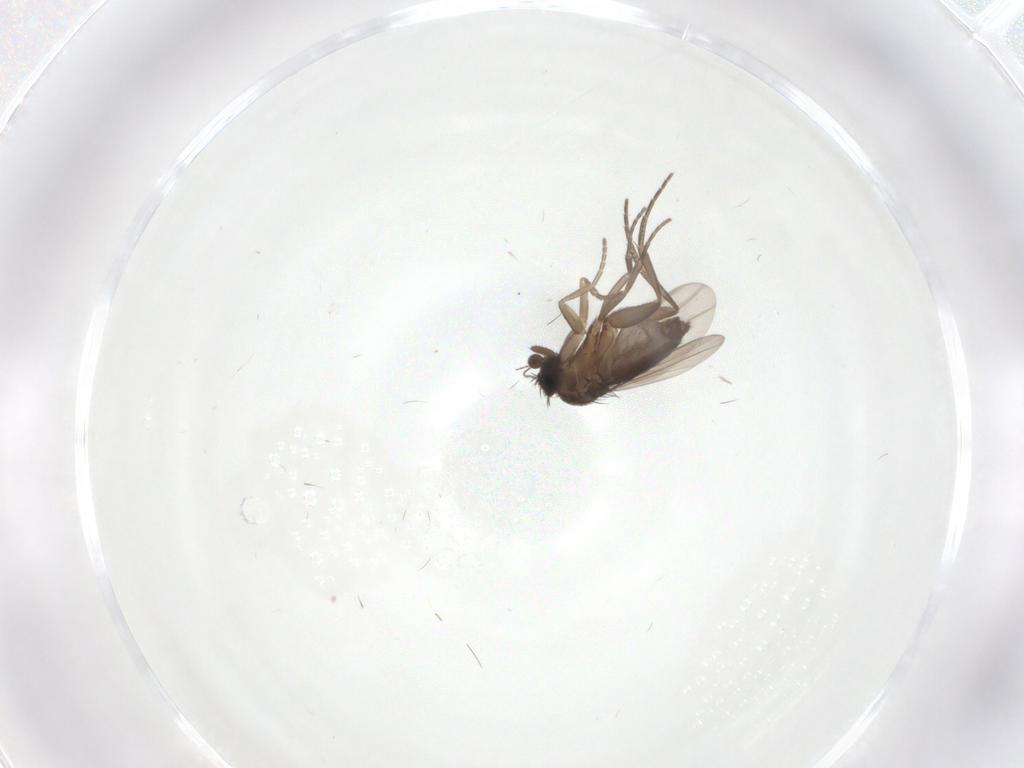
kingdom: Animalia
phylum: Arthropoda
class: Insecta
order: Diptera
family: Phoridae
